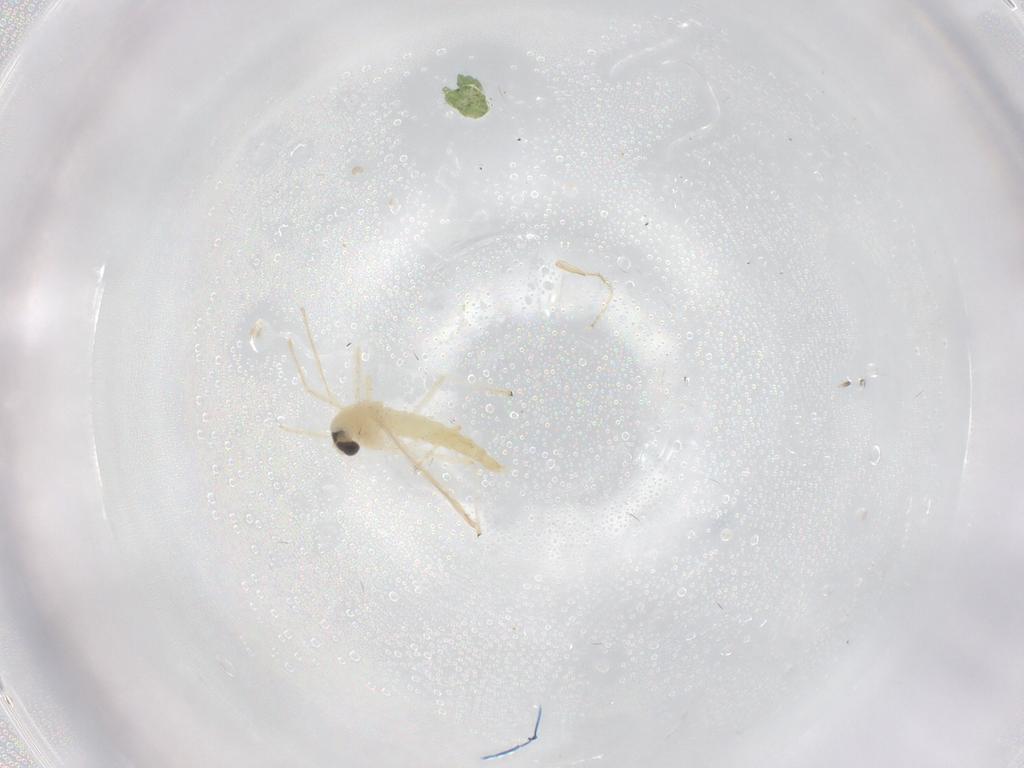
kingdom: Animalia
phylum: Arthropoda
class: Insecta
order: Diptera
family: Chironomidae
